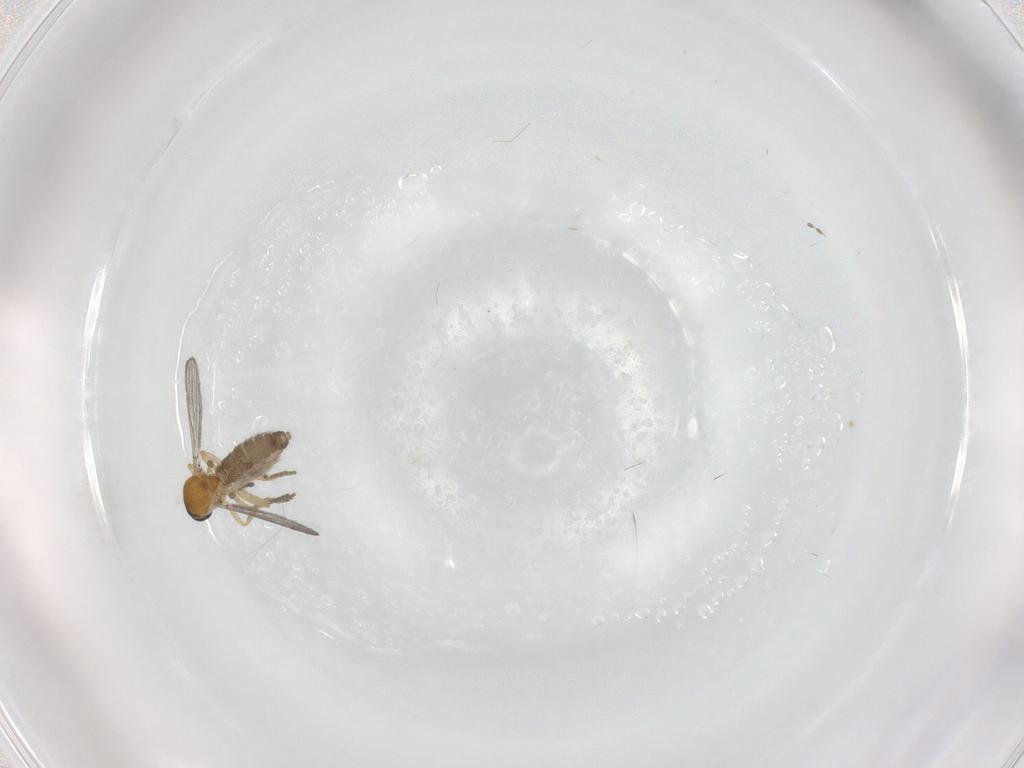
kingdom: Animalia
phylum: Arthropoda
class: Insecta
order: Diptera
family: Ceratopogonidae
